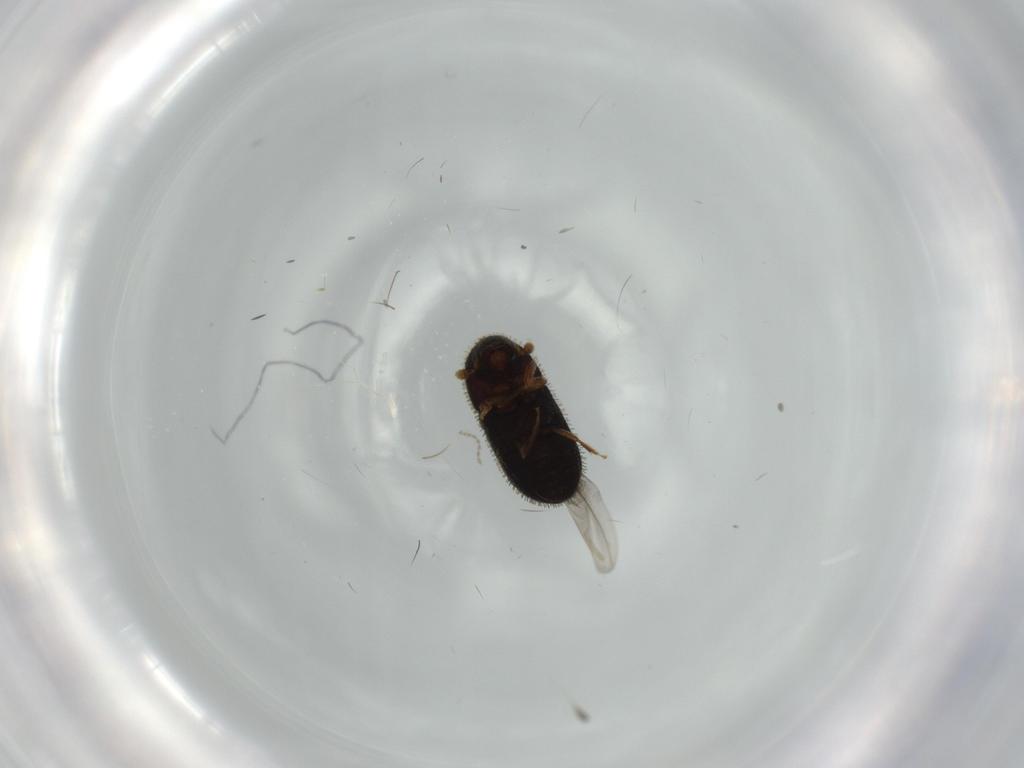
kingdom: Animalia
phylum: Arthropoda
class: Insecta
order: Coleoptera
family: Curculionidae
